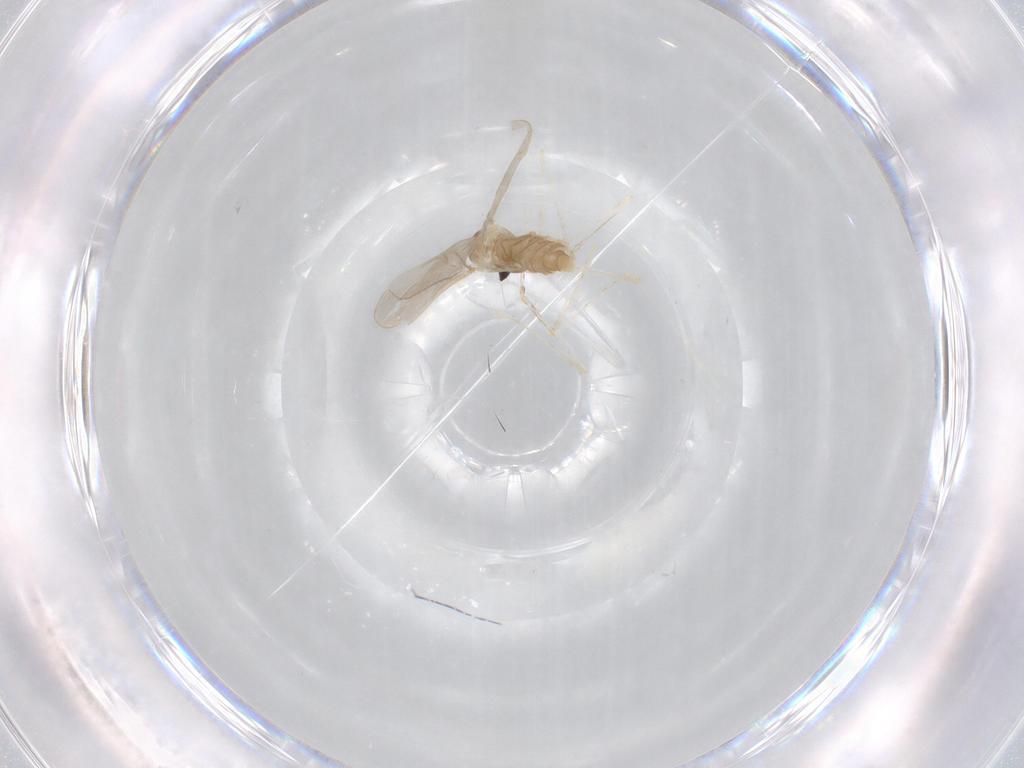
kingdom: Animalia
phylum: Arthropoda
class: Insecta
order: Diptera
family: Cecidomyiidae
